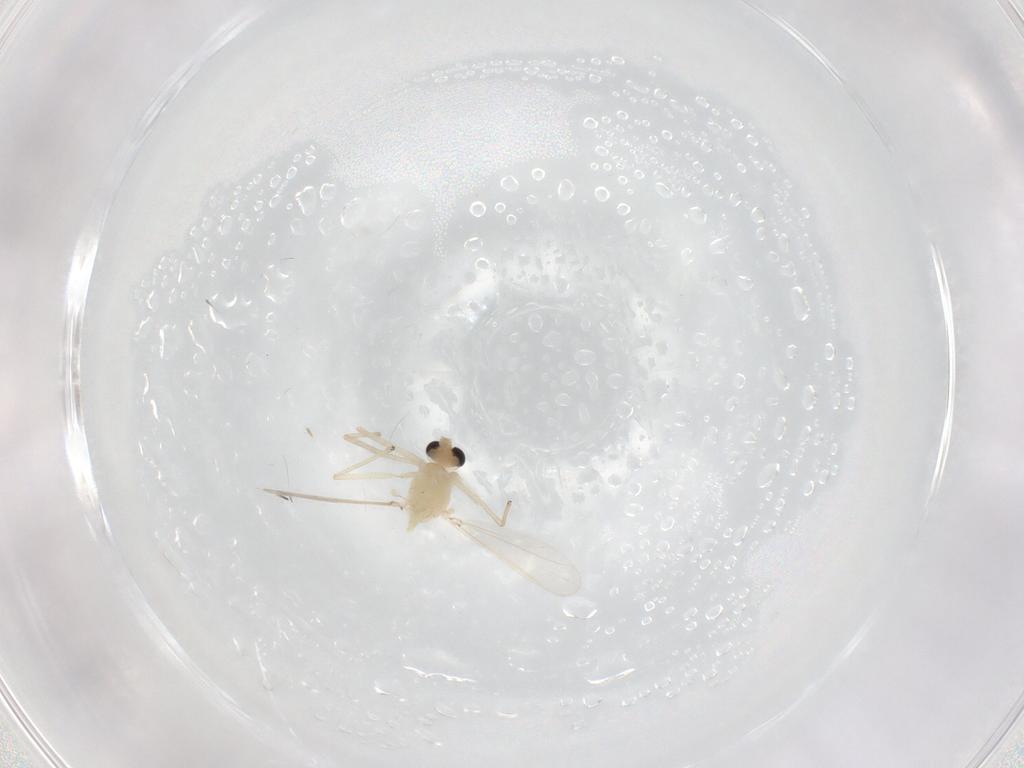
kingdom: Animalia
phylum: Arthropoda
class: Insecta
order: Diptera
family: Chironomidae
